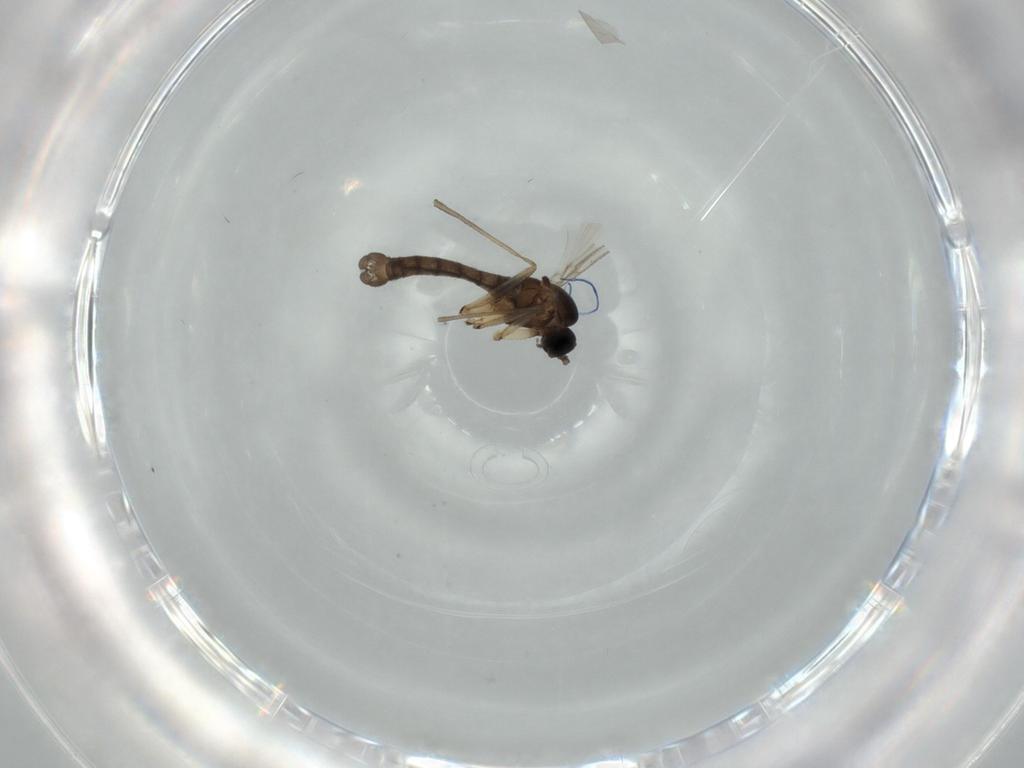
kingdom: Animalia
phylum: Arthropoda
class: Insecta
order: Diptera
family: Sciaridae
